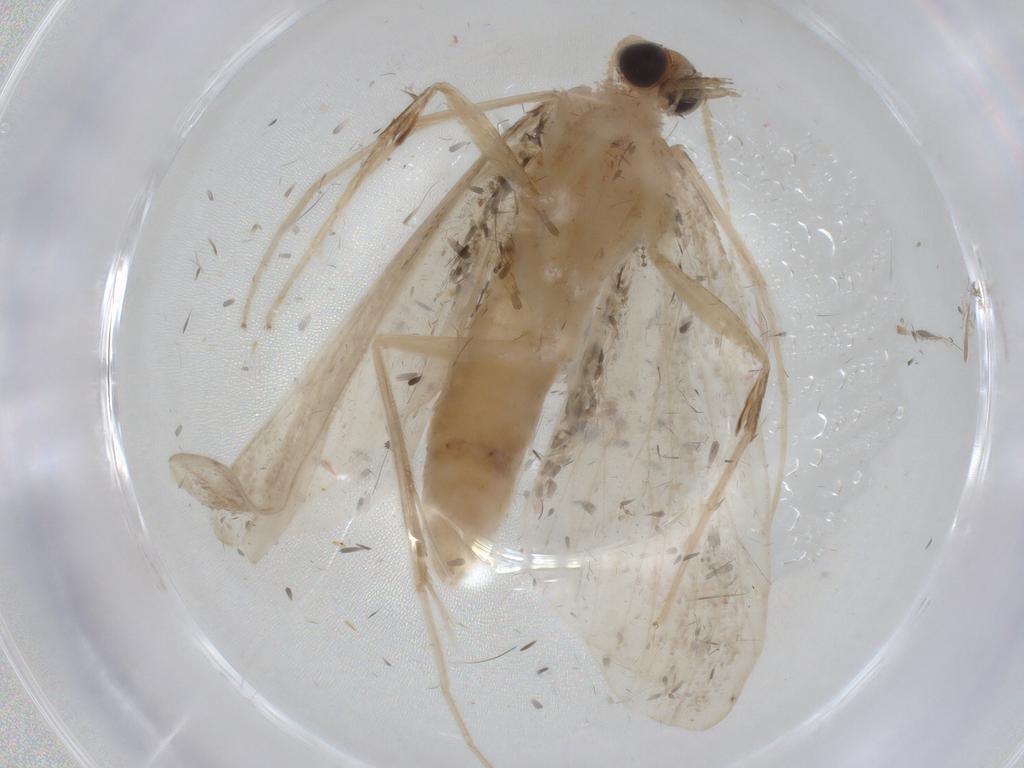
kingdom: Animalia
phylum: Arthropoda
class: Insecta
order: Lepidoptera
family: Crambidae
